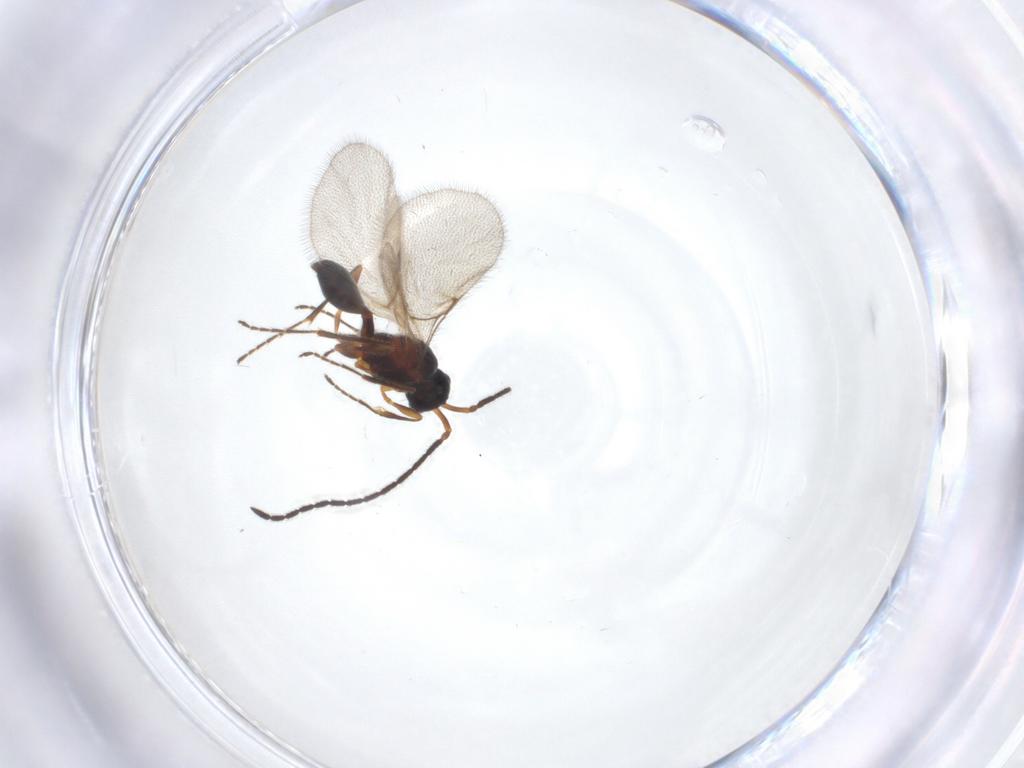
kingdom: Animalia
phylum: Arthropoda
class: Insecta
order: Hymenoptera
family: Diapriidae
